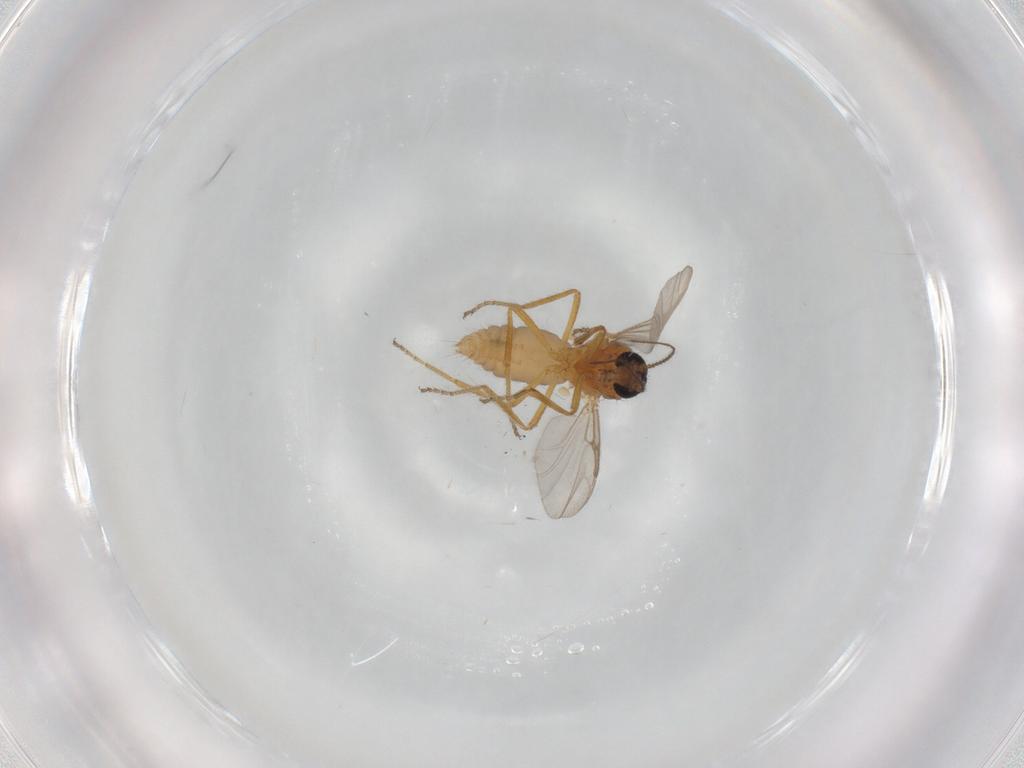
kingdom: Animalia
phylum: Arthropoda
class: Insecta
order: Diptera
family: Ceratopogonidae
